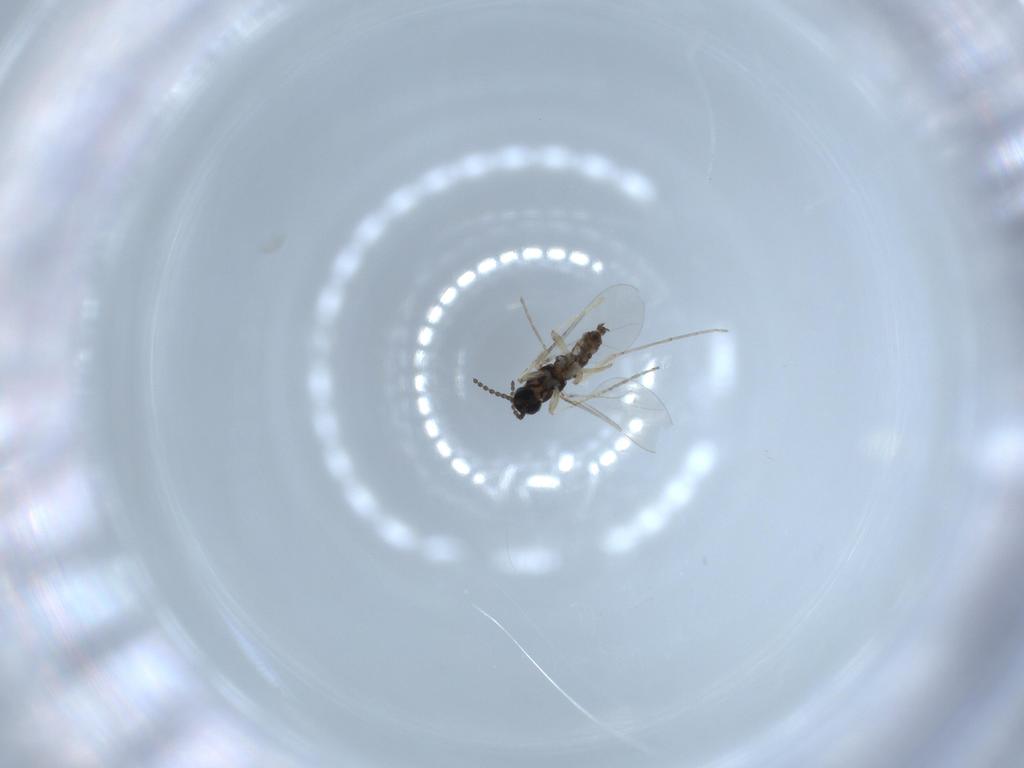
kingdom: Animalia
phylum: Arthropoda
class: Insecta
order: Diptera
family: Cecidomyiidae
